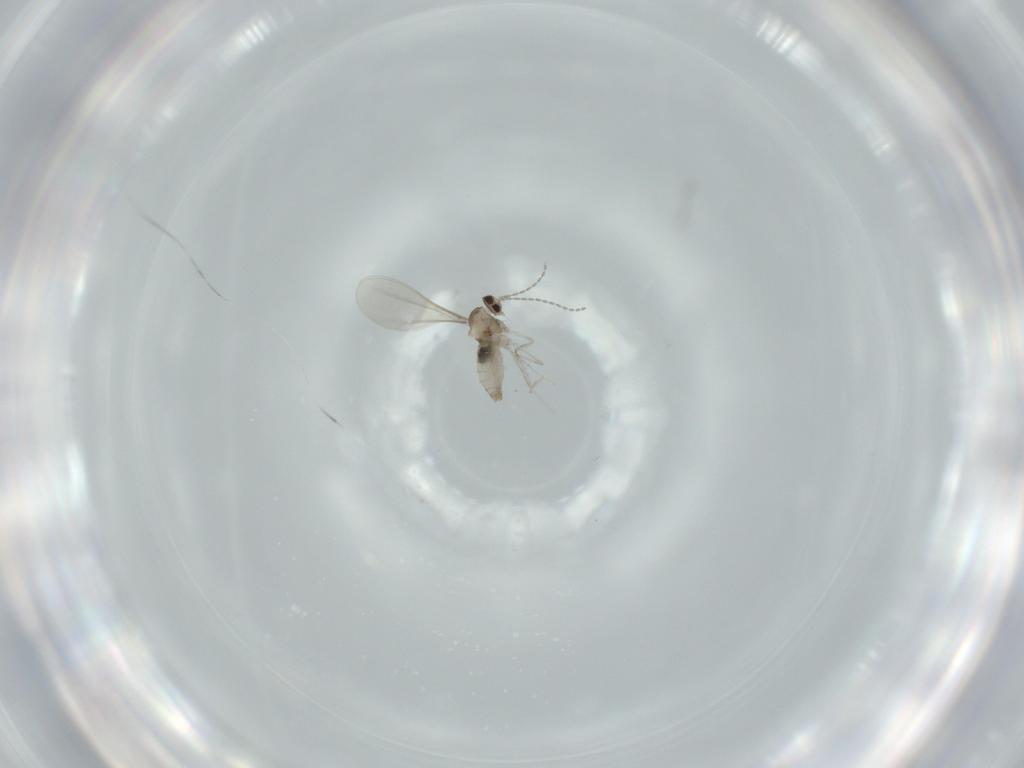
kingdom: Animalia
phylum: Arthropoda
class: Insecta
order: Diptera
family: Cecidomyiidae
